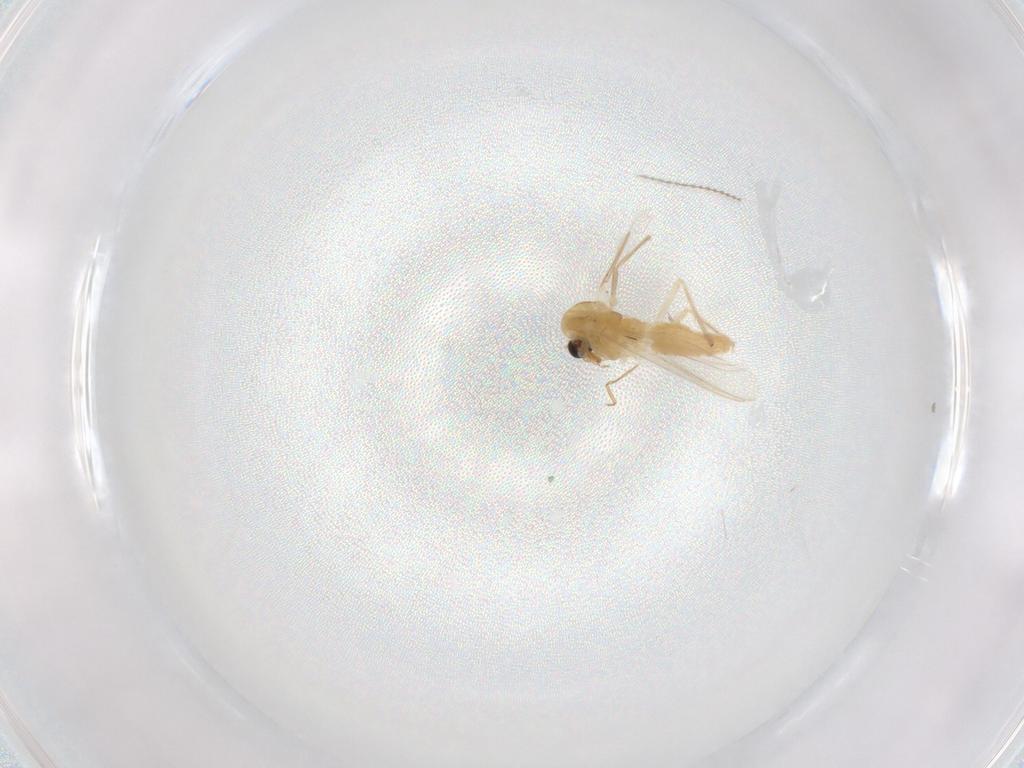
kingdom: Animalia
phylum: Arthropoda
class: Insecta
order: Diptera
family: Chironomidae
